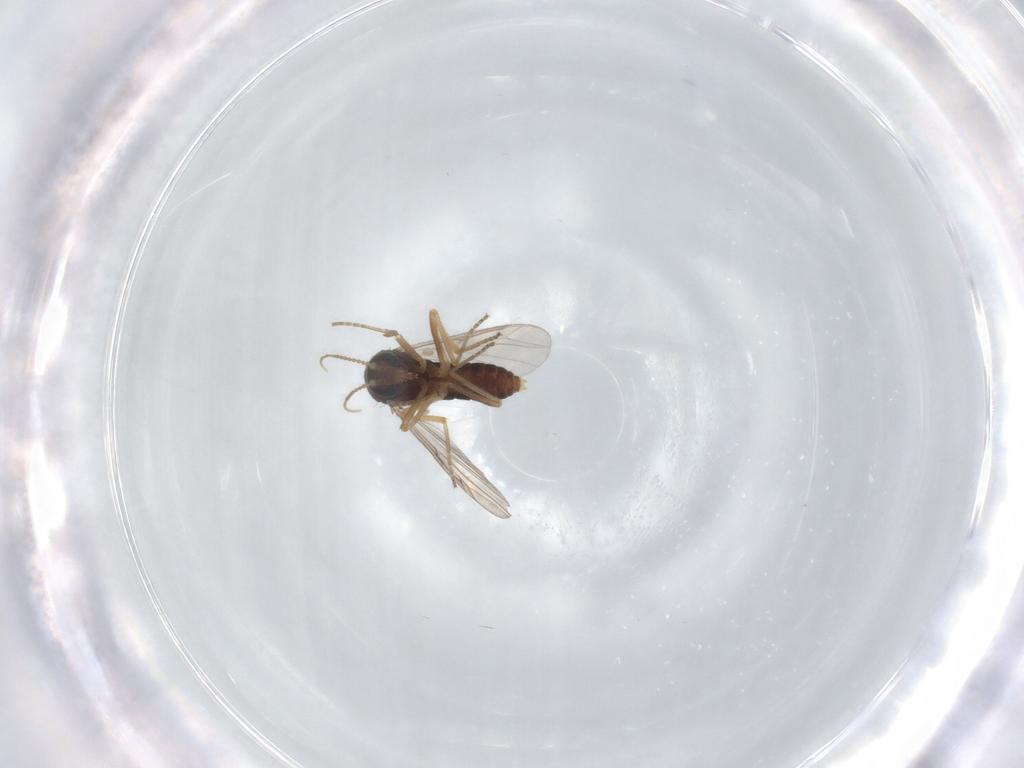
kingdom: Animalia
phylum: Arthropoda
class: Insecta
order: Diptera
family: Ceratopogonidae
